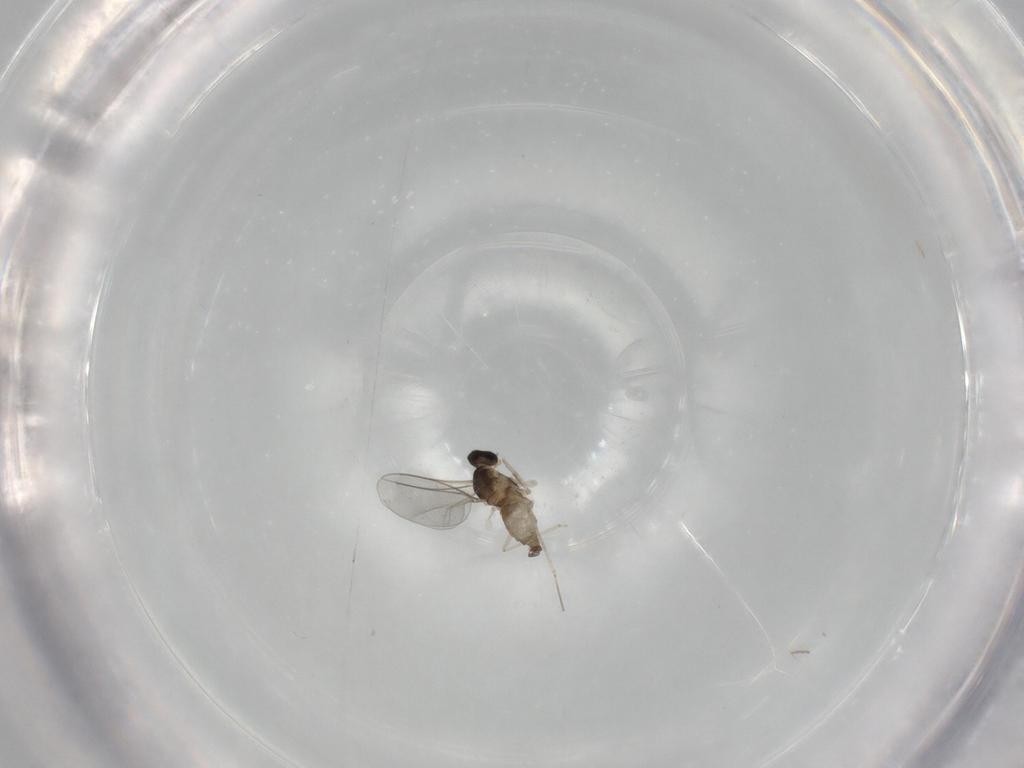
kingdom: Animalia
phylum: Arthropoda
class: Insecta
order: Diptera
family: Cecidomyiidae
